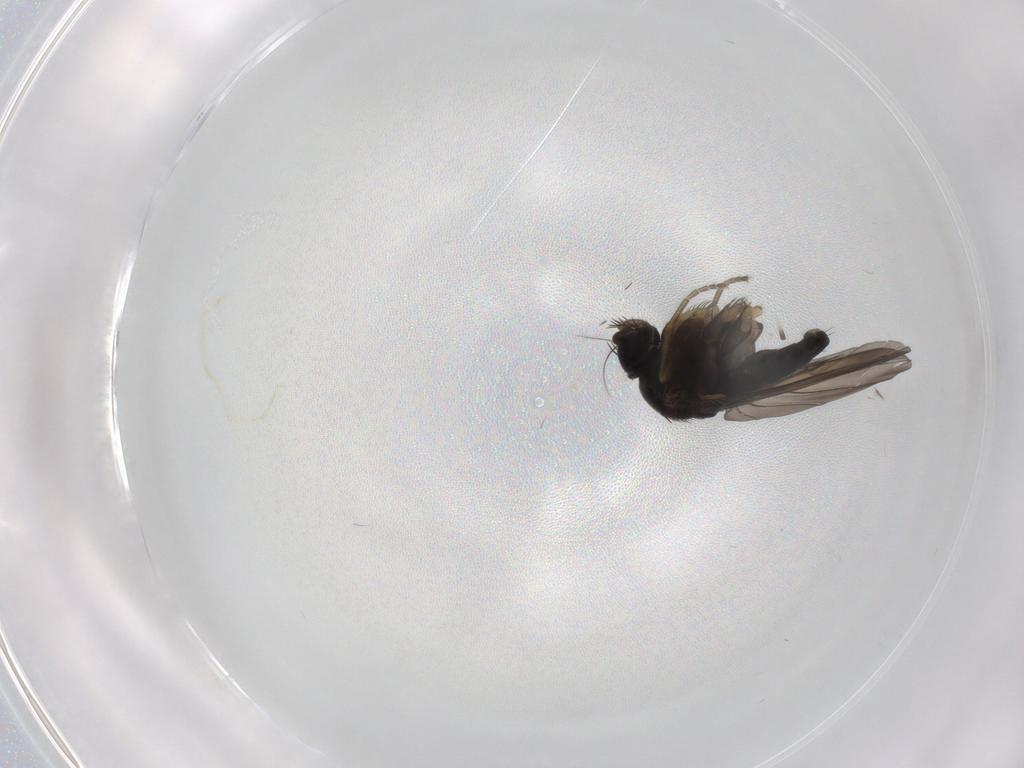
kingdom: Animalia
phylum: Arthropoda
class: Insecta
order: Diptera
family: Phoridae
